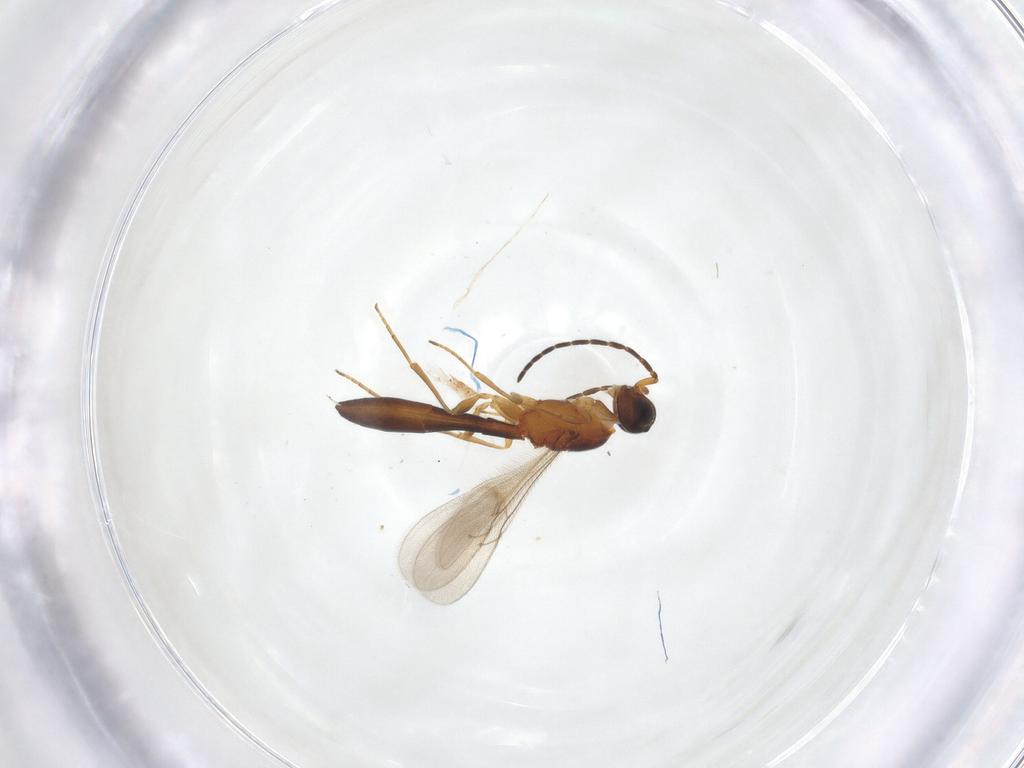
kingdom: Animalia
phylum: Arthropoda
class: Insecta
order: Hymenoptera
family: Scelionidae
